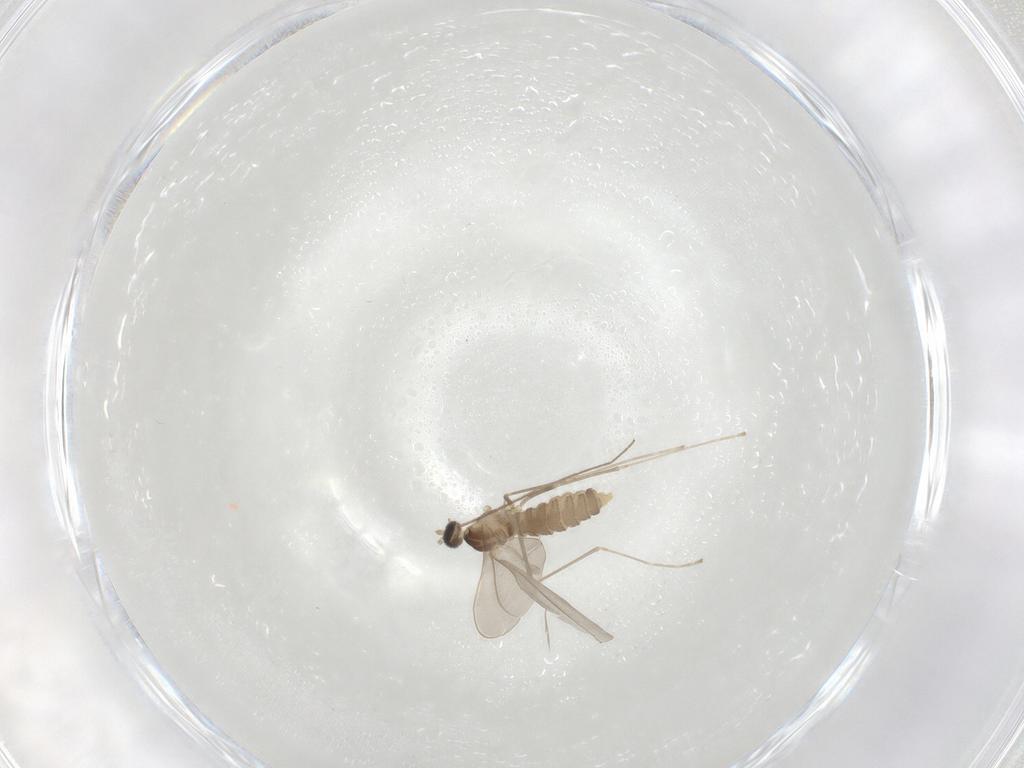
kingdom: Animalia
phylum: Arthropoda
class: Insecta
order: Diptera
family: Cecidomyiidae
